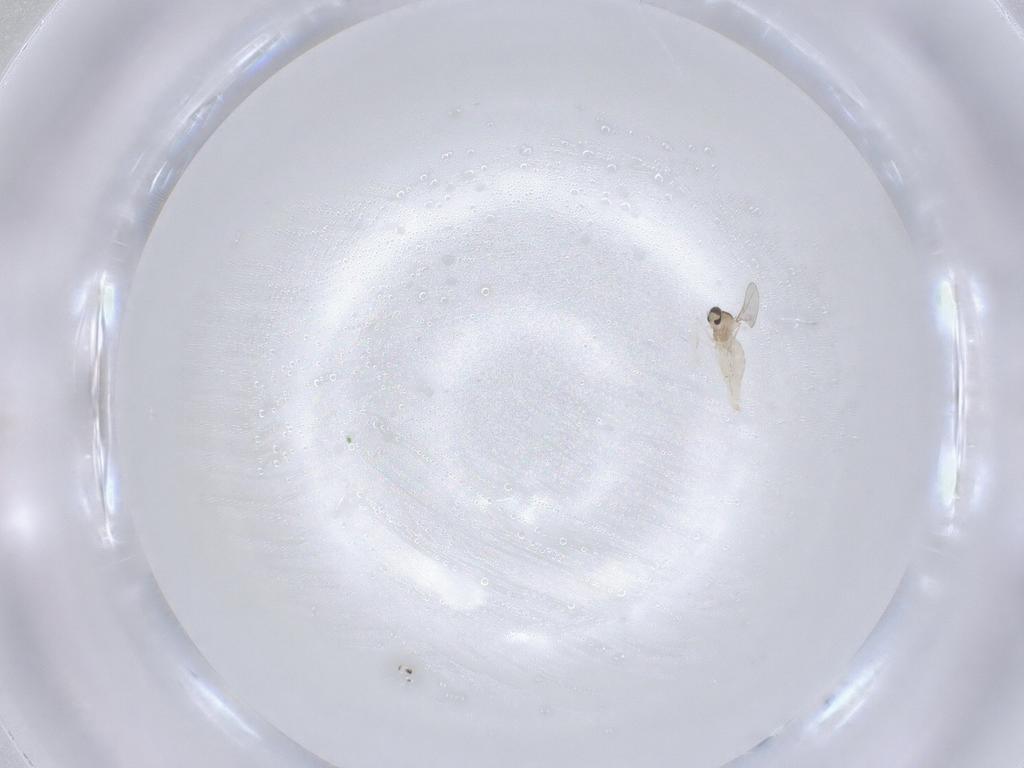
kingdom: Animalia
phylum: Arthropoda
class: Insecta
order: Diptera
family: Cecidomyiidae
